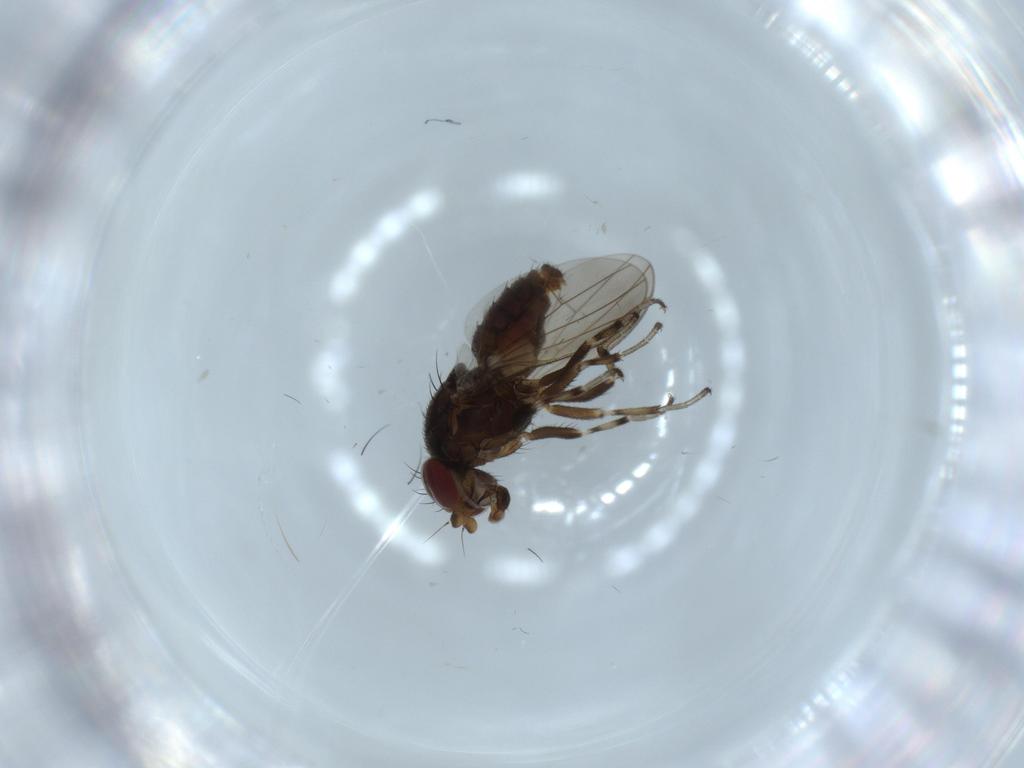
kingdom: Animalia
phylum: Arthropoda
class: Insecta
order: Diptera
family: Heleomyzidae
